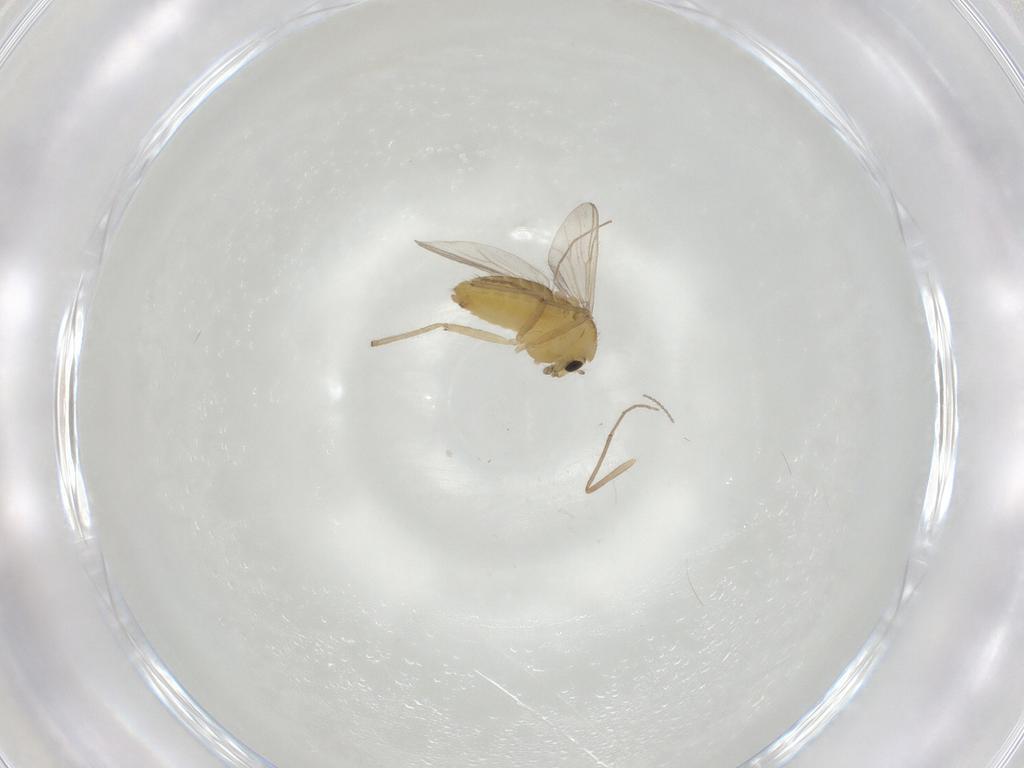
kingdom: Animalia
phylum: Arthropoda
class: Insecta
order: Diptera
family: Chironomidae
